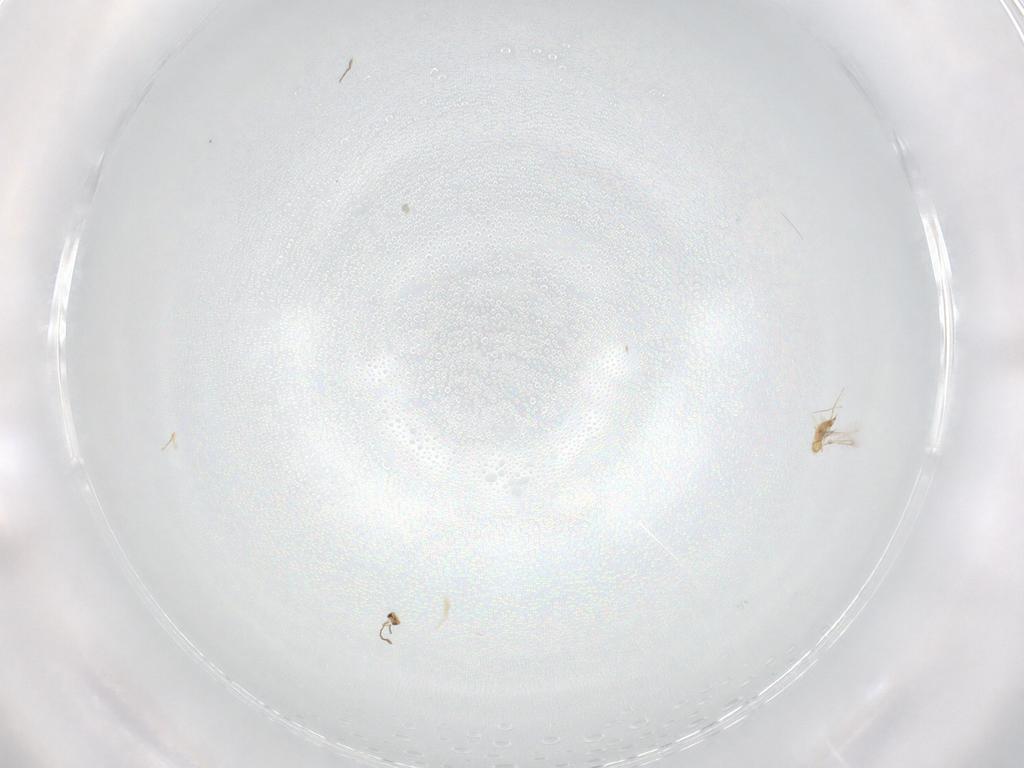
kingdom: Animalia
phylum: Arthropoda
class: Insecta
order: Hymenoptera
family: Mymaridae
